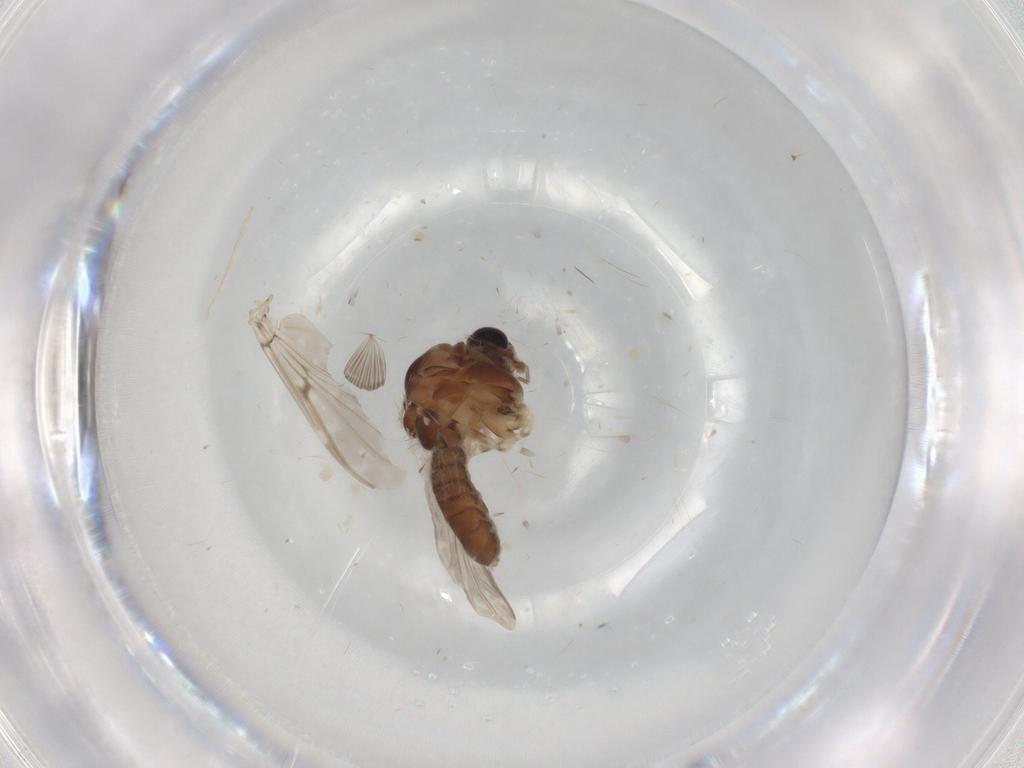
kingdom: Animalia
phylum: Arthropoda
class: Insecta
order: Diptera
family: Chironomidae
